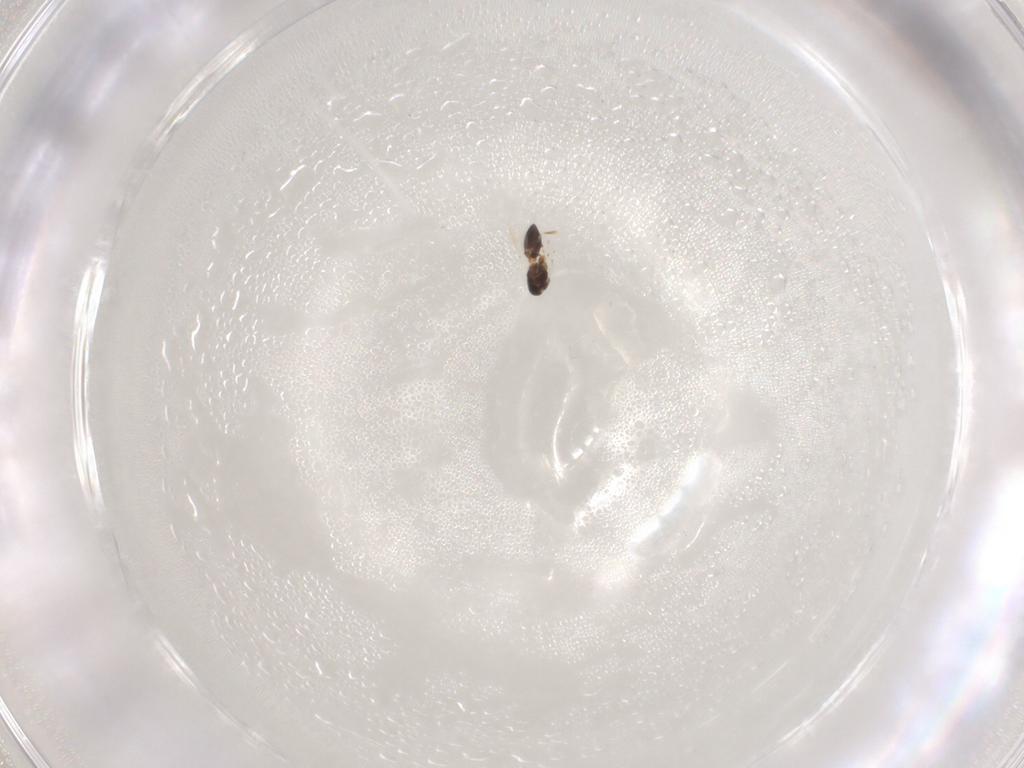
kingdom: Animalia
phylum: Arthropoda
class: Insecta
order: Hymenoptera
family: Platygastridae
